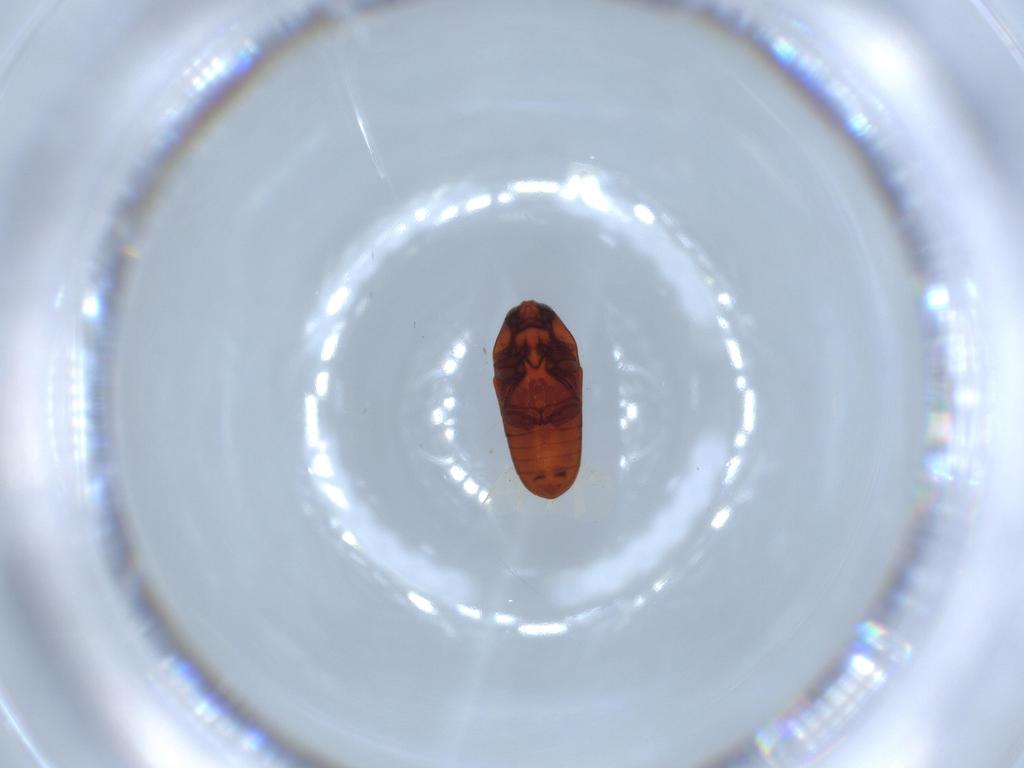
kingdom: Animalia
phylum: Arthropoda
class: Insecta
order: Coleoptera
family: Throscidae
